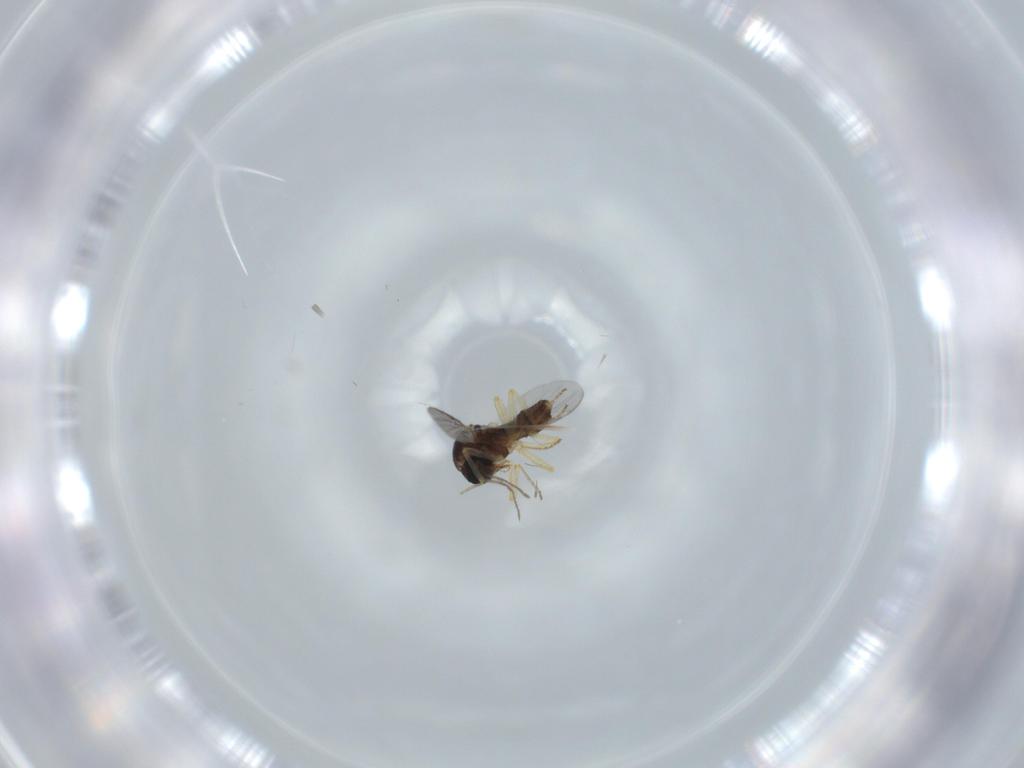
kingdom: Animalia
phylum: Arthropoda
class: Insecta
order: Diptera
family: Ceratopogonidae
